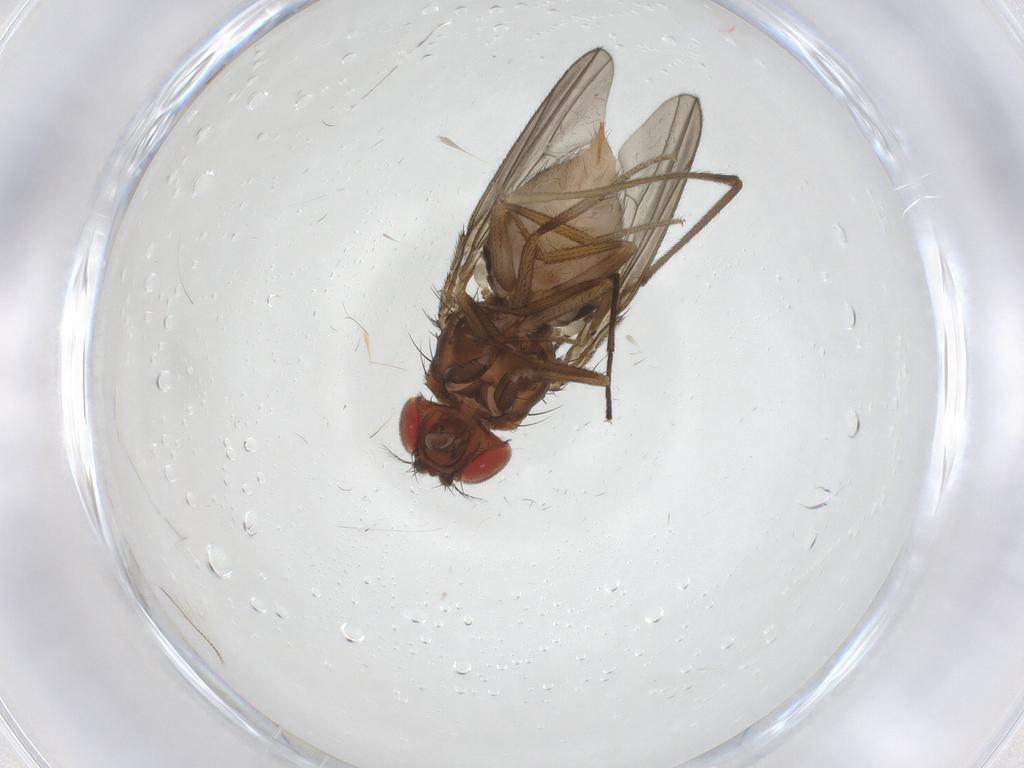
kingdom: Animalia
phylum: Arthropoda
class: Insecta
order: Diptera
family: Drosophilidae
